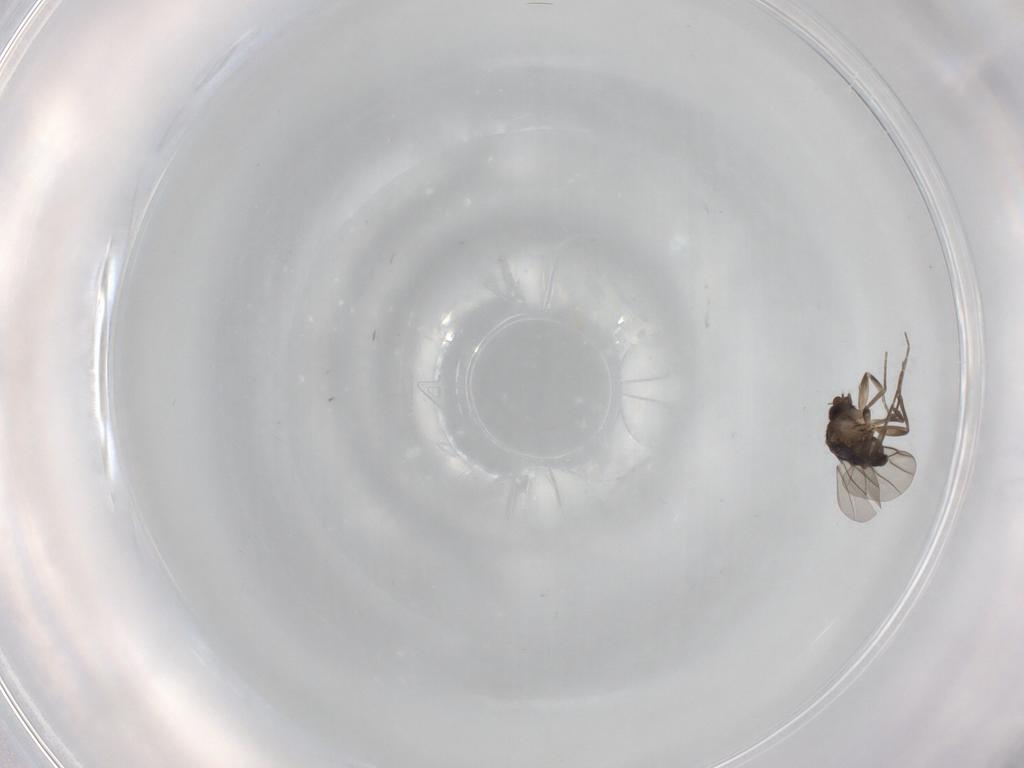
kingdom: Animalia
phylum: Arthropoda
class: Insecta
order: Diptera
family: Phoridae
